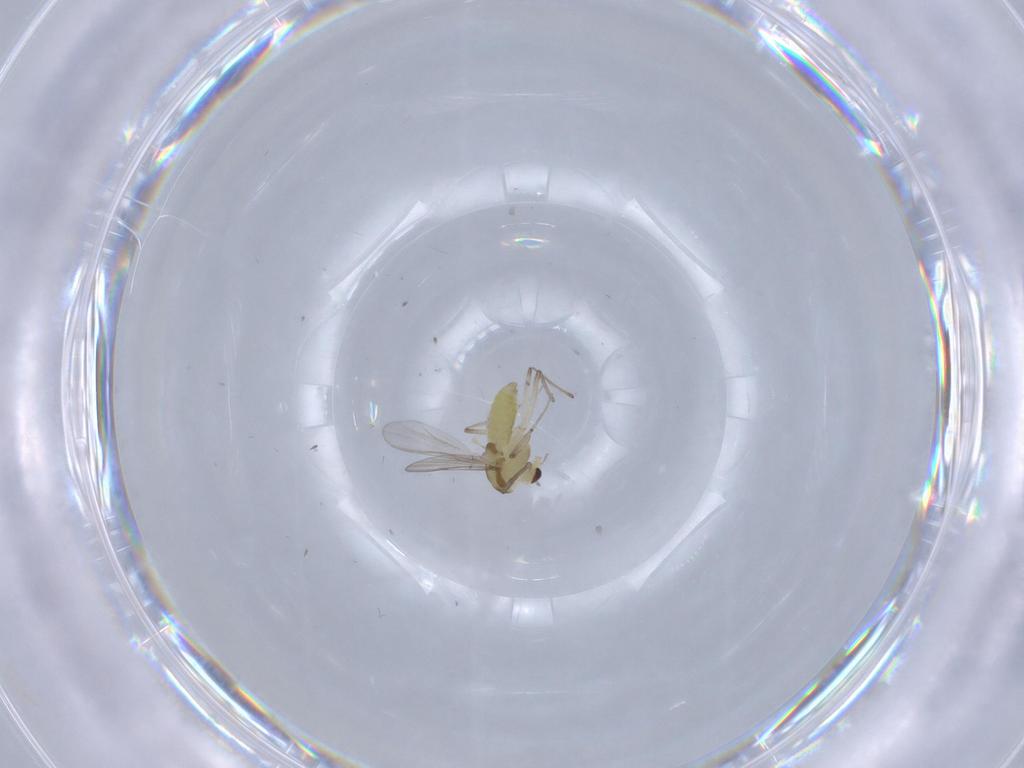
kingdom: Animalia
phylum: Arthropoda
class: Insecta
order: Diptera
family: Chironomidae
